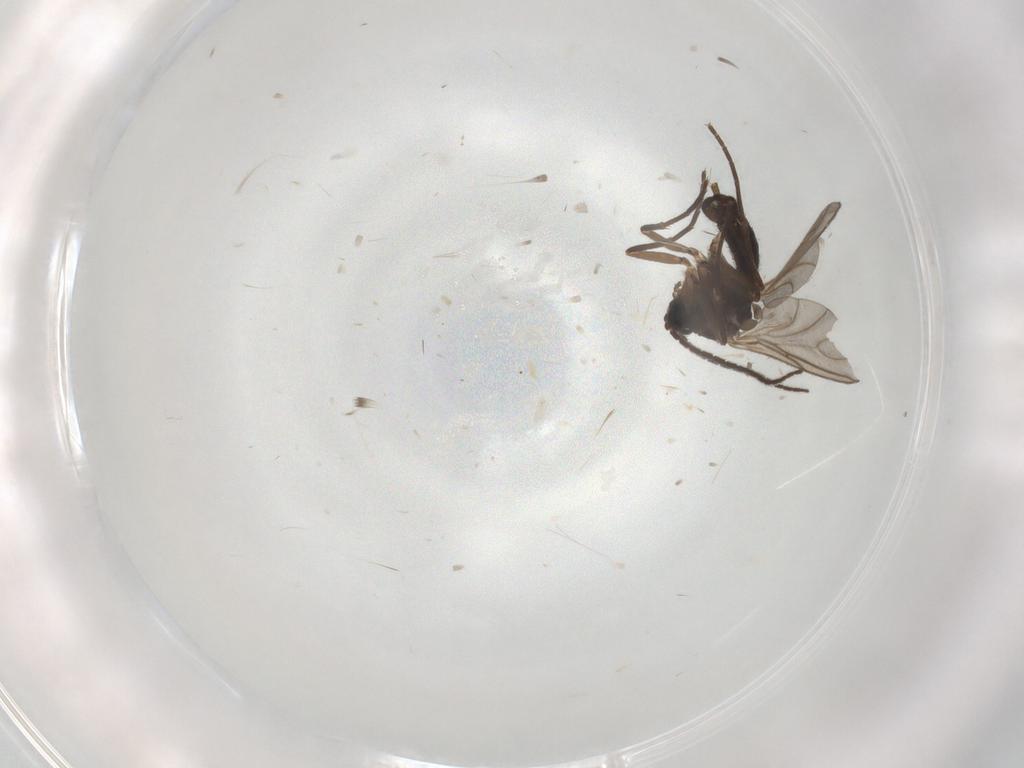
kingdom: Animalia
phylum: Arthropoda
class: Insecta
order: Diptera
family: Sciaridae
